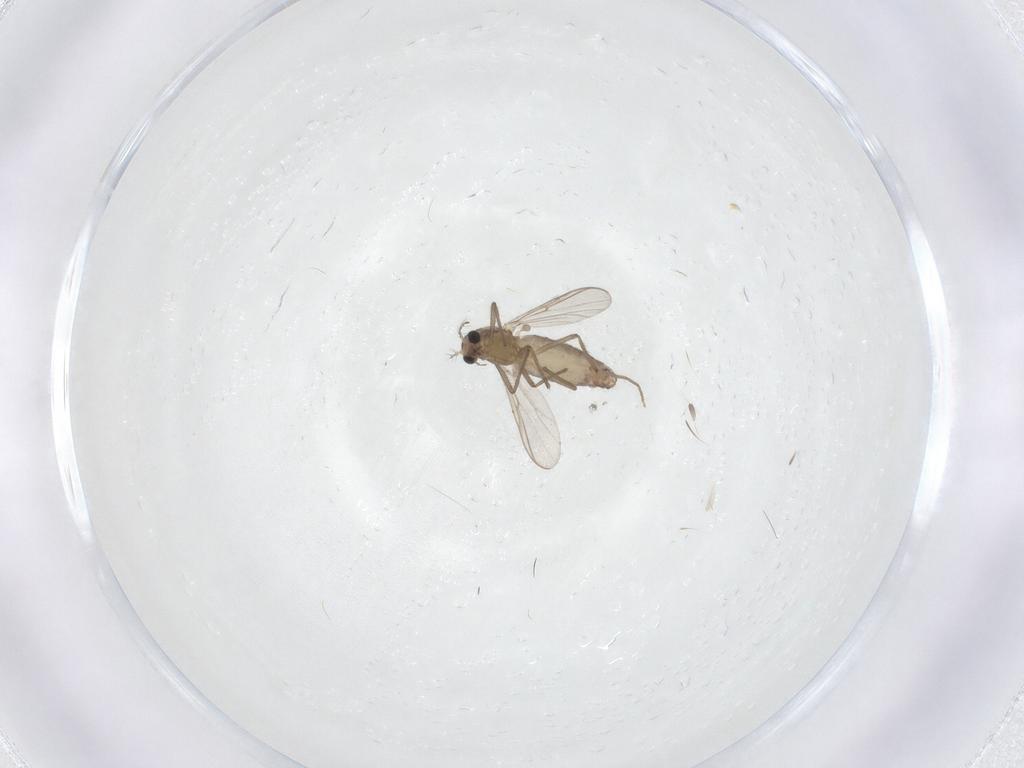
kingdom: Animalia
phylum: Arthropoda
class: Insecta
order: Diptera
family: Chironomidae
